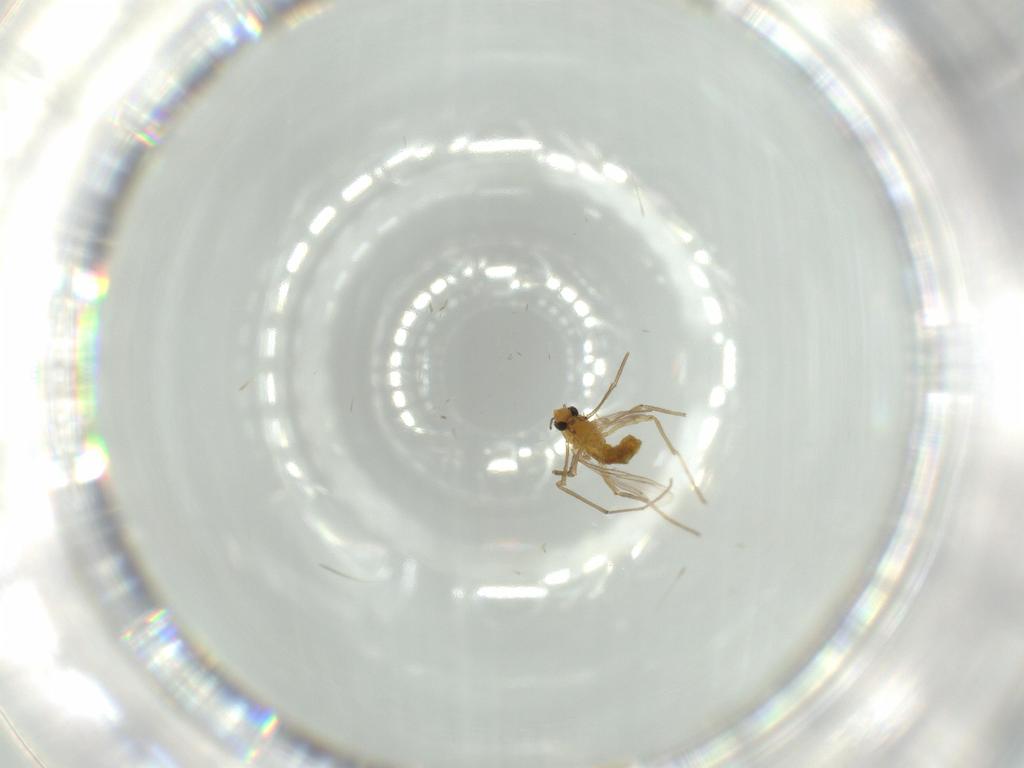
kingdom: Animalia
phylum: Arthropoda
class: Insecta
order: Diptera
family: Chironomidae
